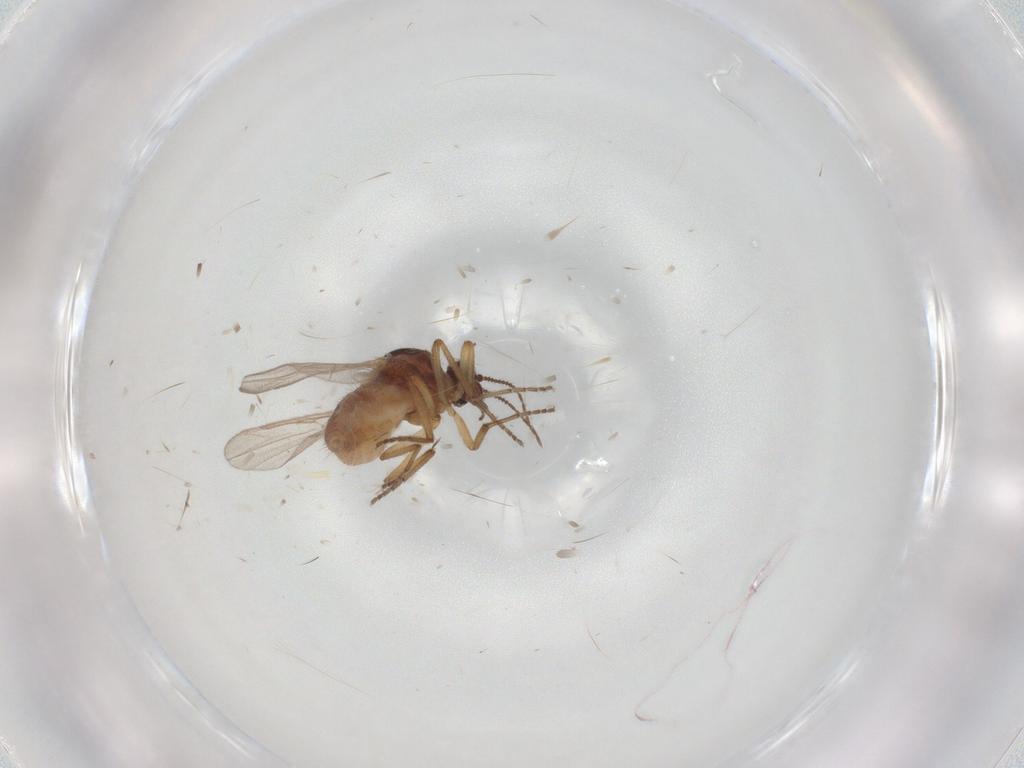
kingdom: Animalia
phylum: Arthropoda
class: Insecta
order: Diptera
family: Ceratopogonidae
